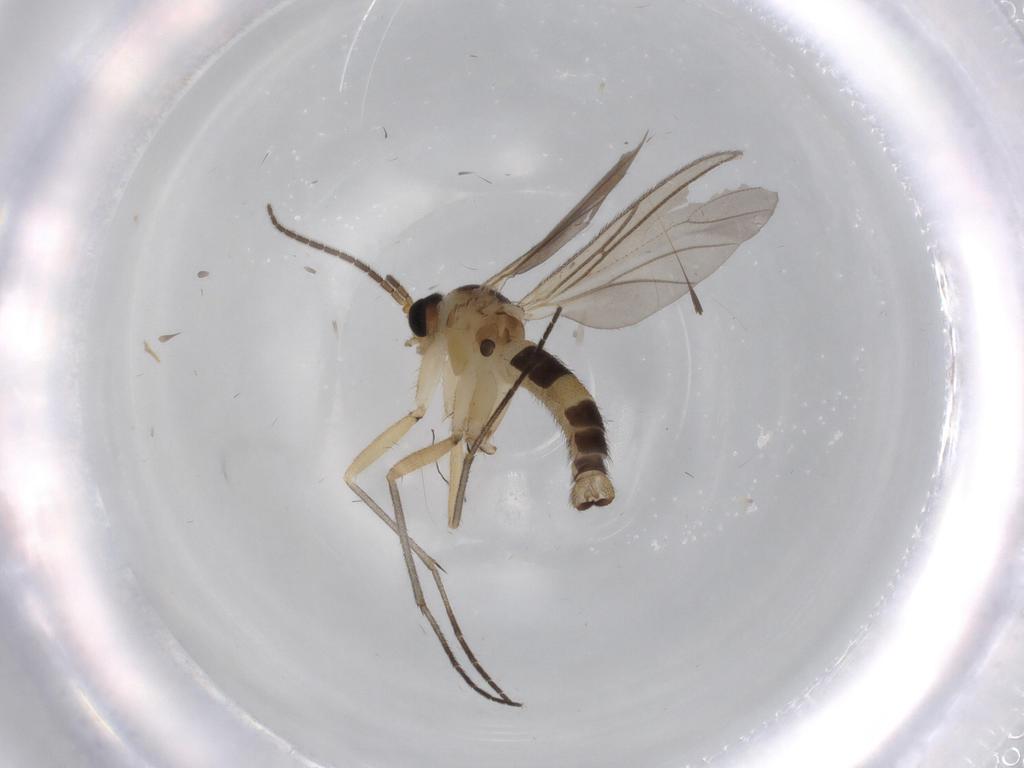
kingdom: Animalia
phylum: Arthropoda
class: Insecta
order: Diptera
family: Sciaridae
